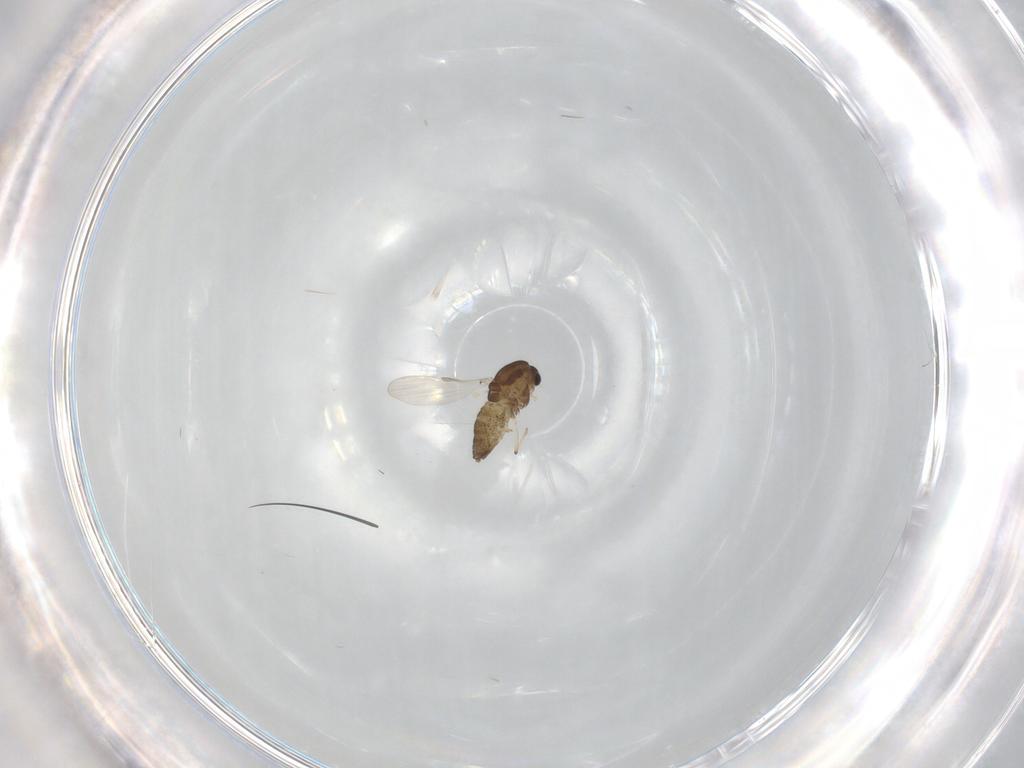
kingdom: Animalia
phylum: Arthropoda
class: Insecta
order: Diptera
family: Chironomidae
